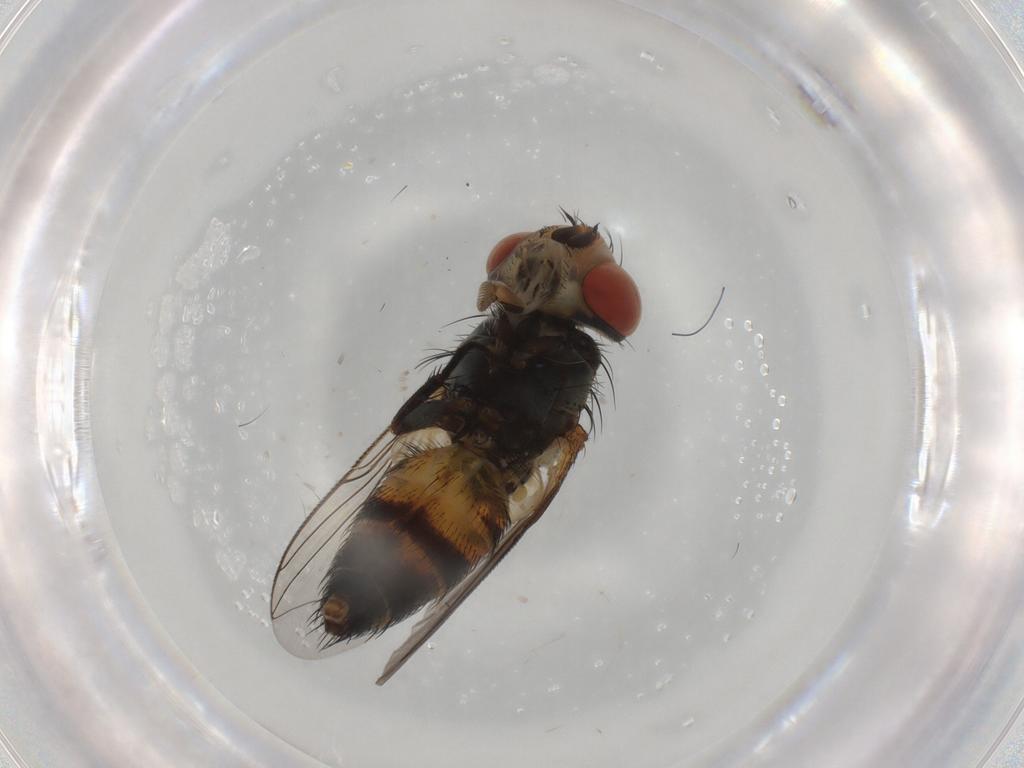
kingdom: Animalia
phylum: Arthropoda
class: Insecta
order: Diptera
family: Sarcophagidae
